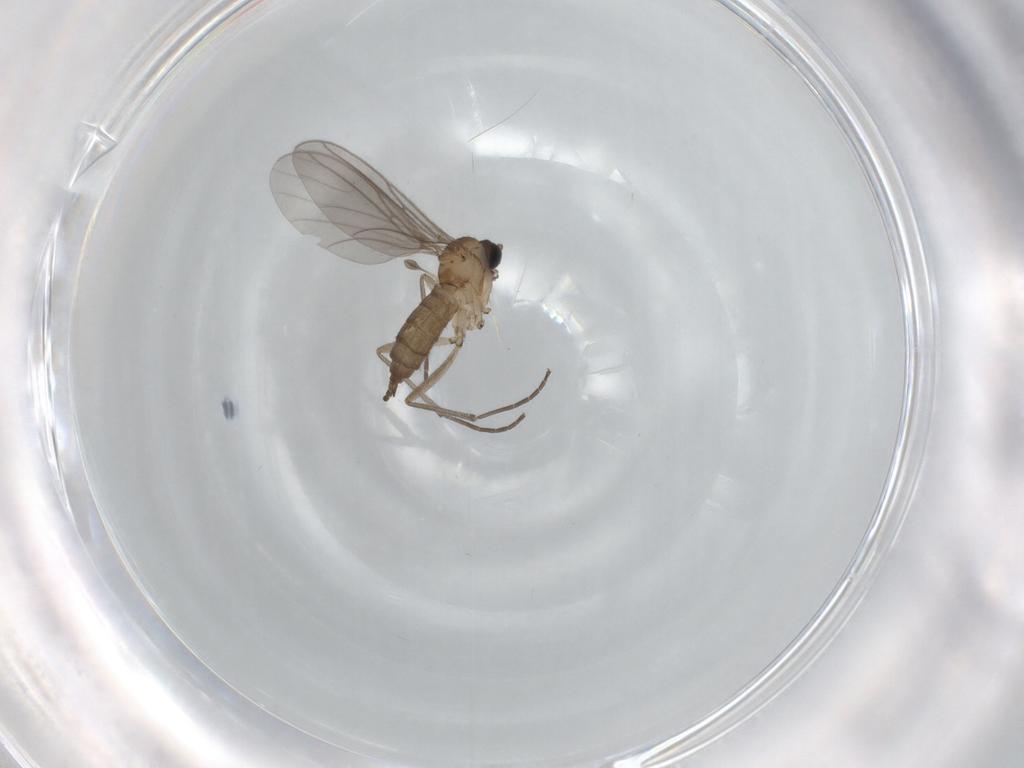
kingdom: Animalia
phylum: Arthropoda
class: Insecta
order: Diptera
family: Sciaridae
